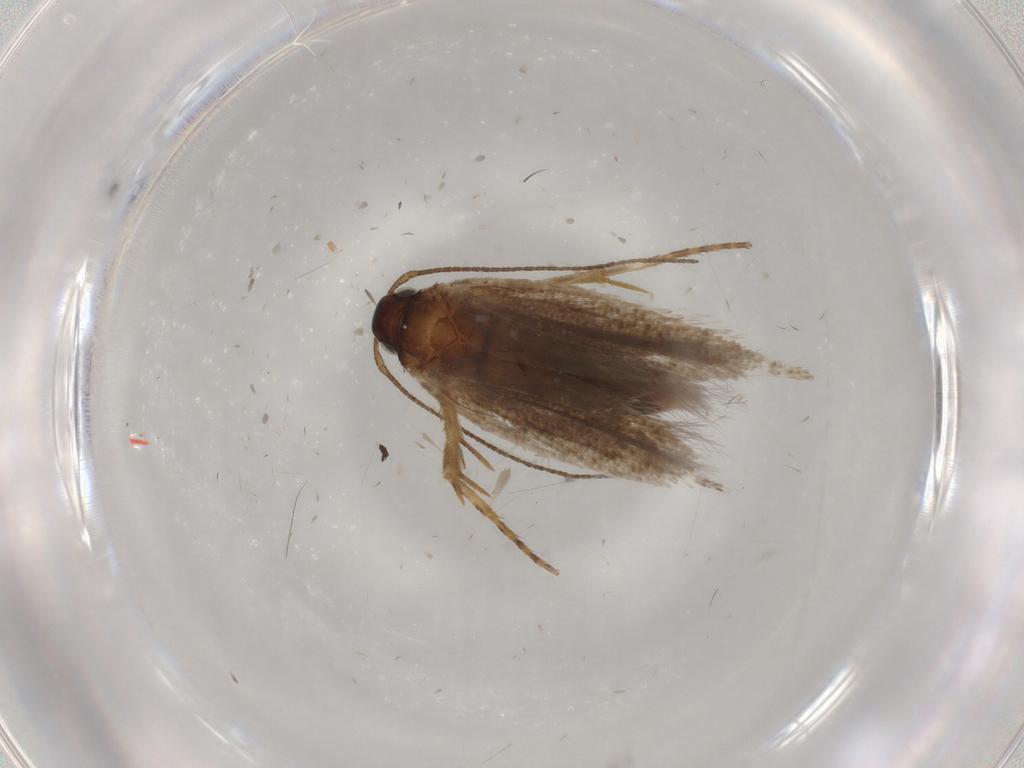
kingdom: Animalia
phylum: Arthropoda
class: Insecta
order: Lepidoptera
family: Gelechiidae
